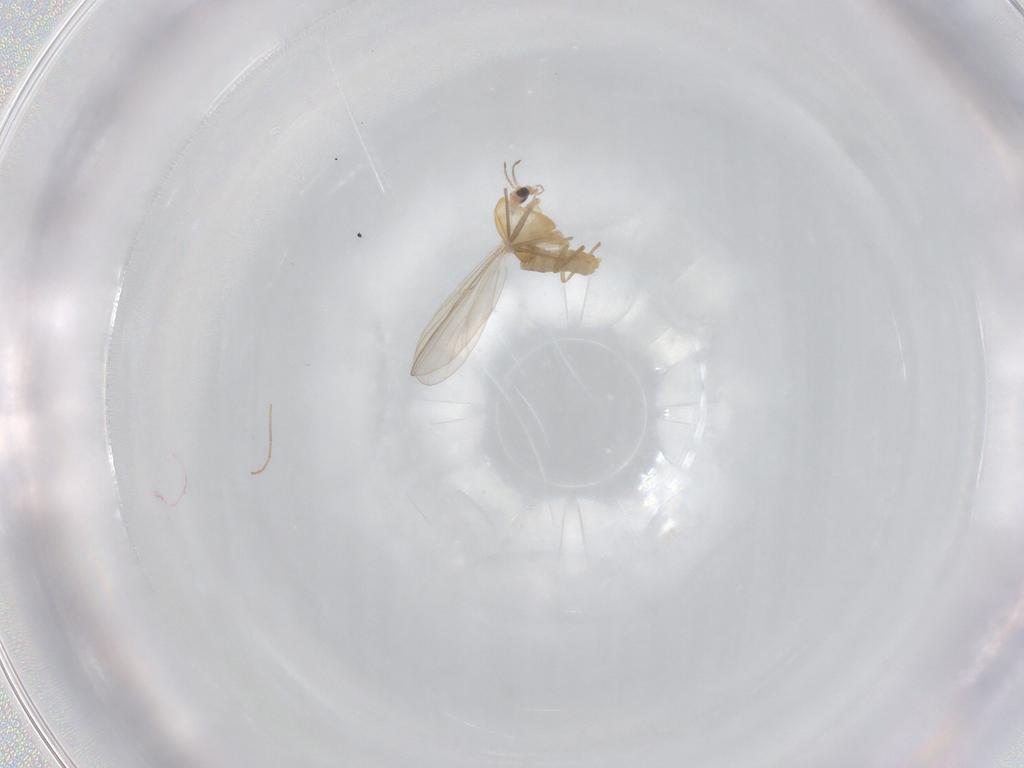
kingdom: Animalia
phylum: Arthropoda
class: Insecta
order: Diptera
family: Chironomidae
